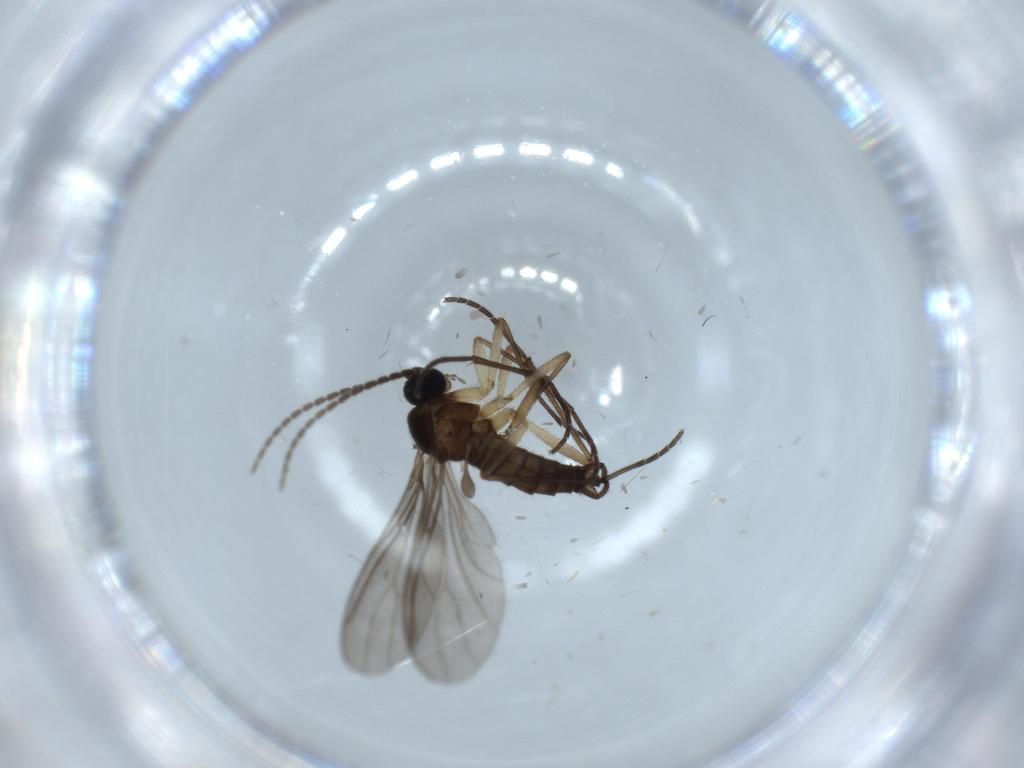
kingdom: Animalia
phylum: Arthropoda
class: Insecta
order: Diptera
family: Sciaridae
